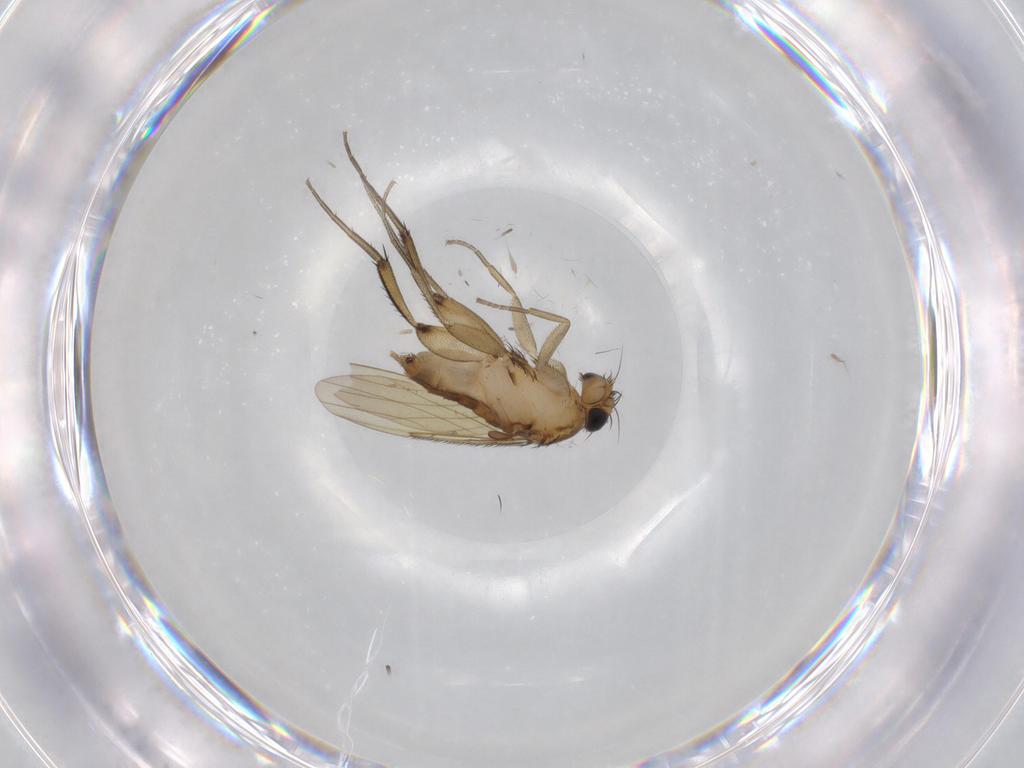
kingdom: Animalia
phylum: Arthropoda
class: Insecta
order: Diptera
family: Phoridae
